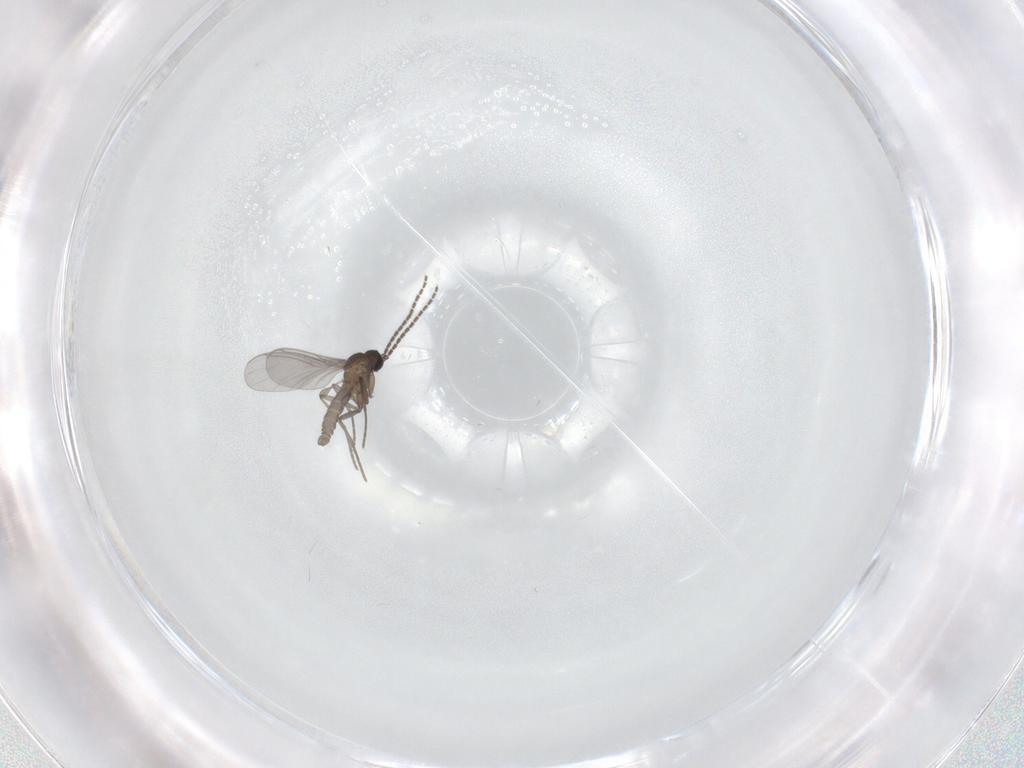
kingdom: Animalia
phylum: Arthropoda
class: Insecta
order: Diptera
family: Sciaridae
